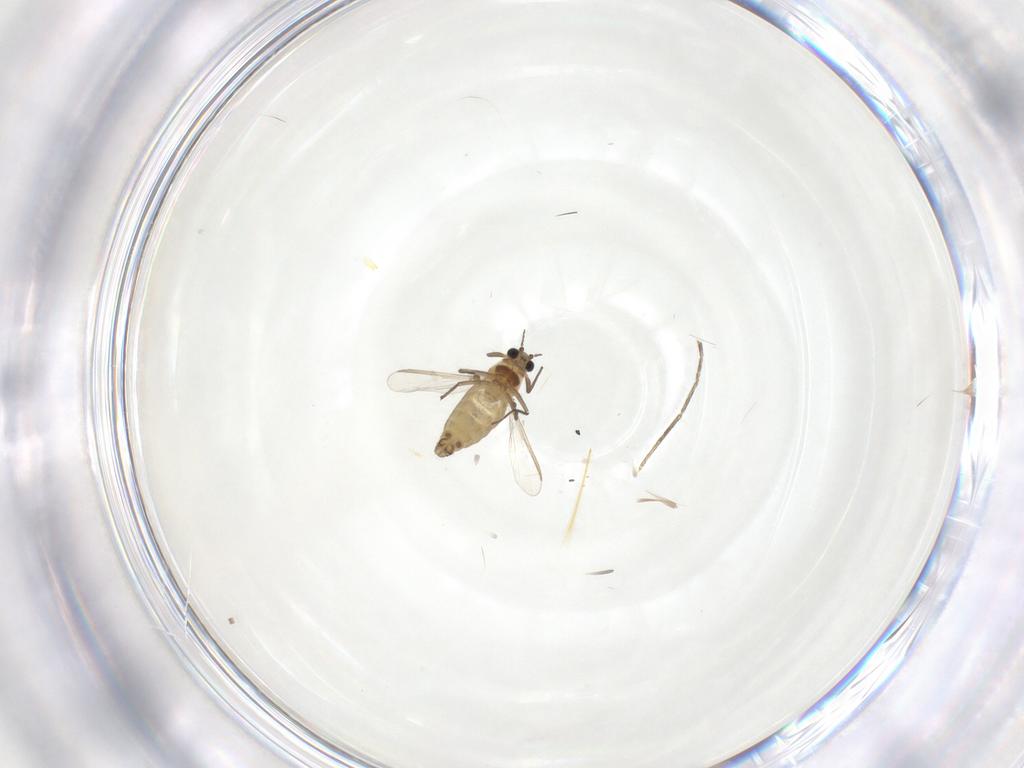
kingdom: Animalia
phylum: Arthropoda
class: Insecta
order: Diptera
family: Chironomidae
